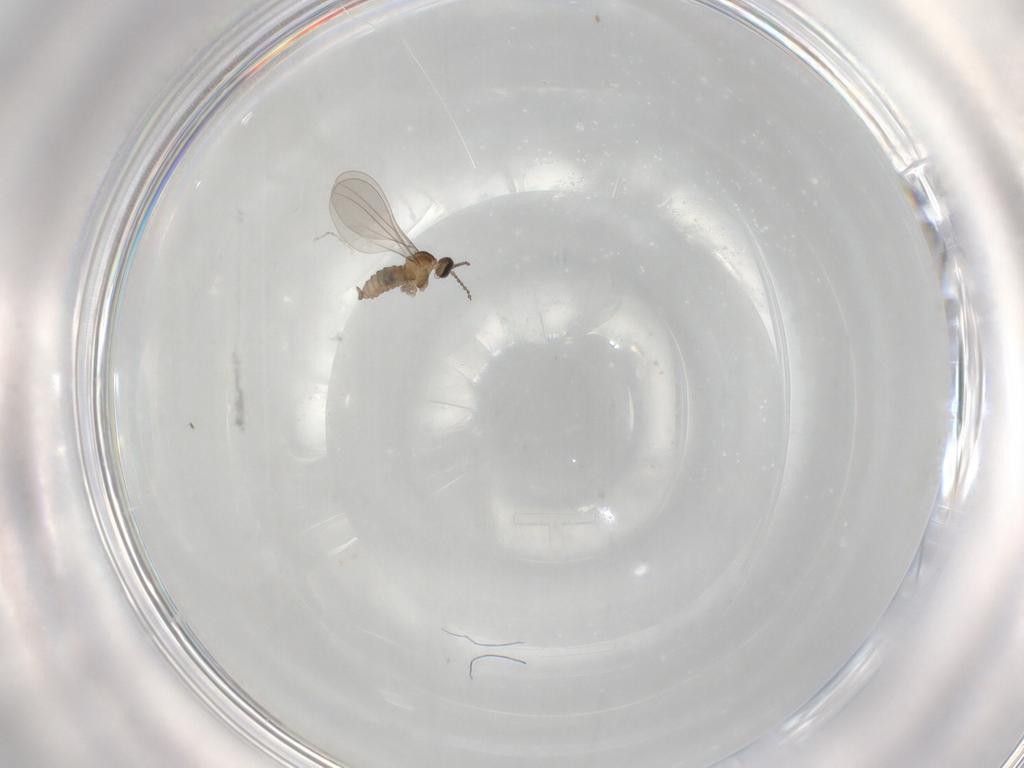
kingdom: Animalia
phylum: Arthropoda
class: Insecta
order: Diptera
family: Cecidomyiidae
